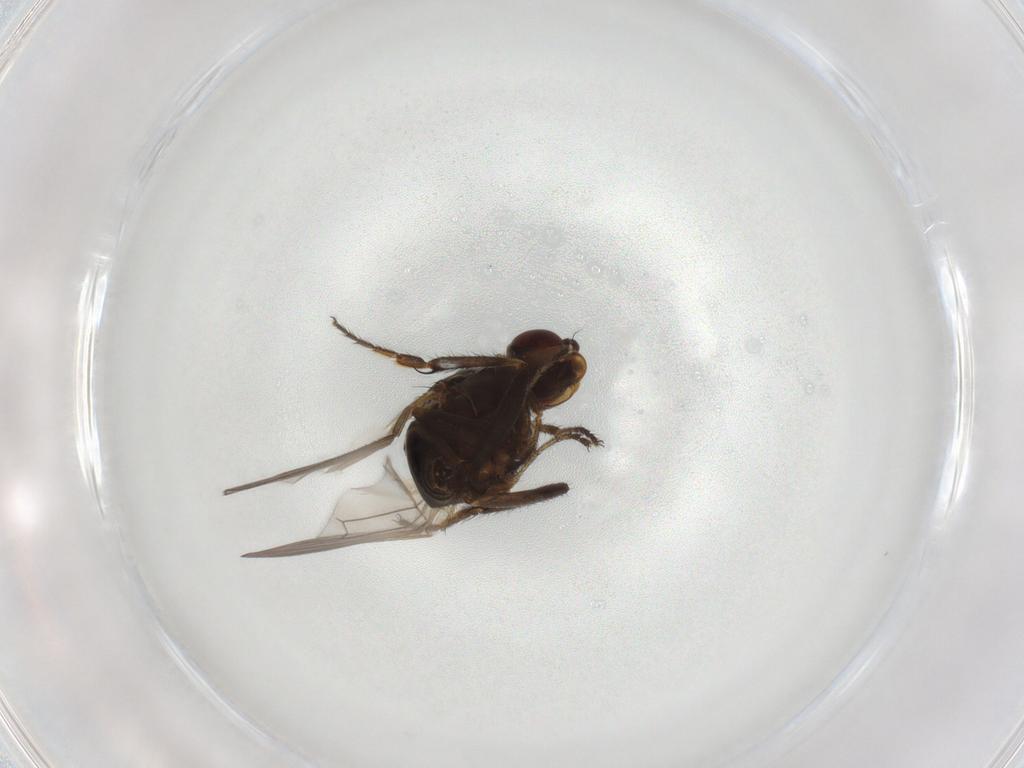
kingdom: Animalia
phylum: Arthropoda
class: Insecta
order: Diptera
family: Sphaeroceridae
